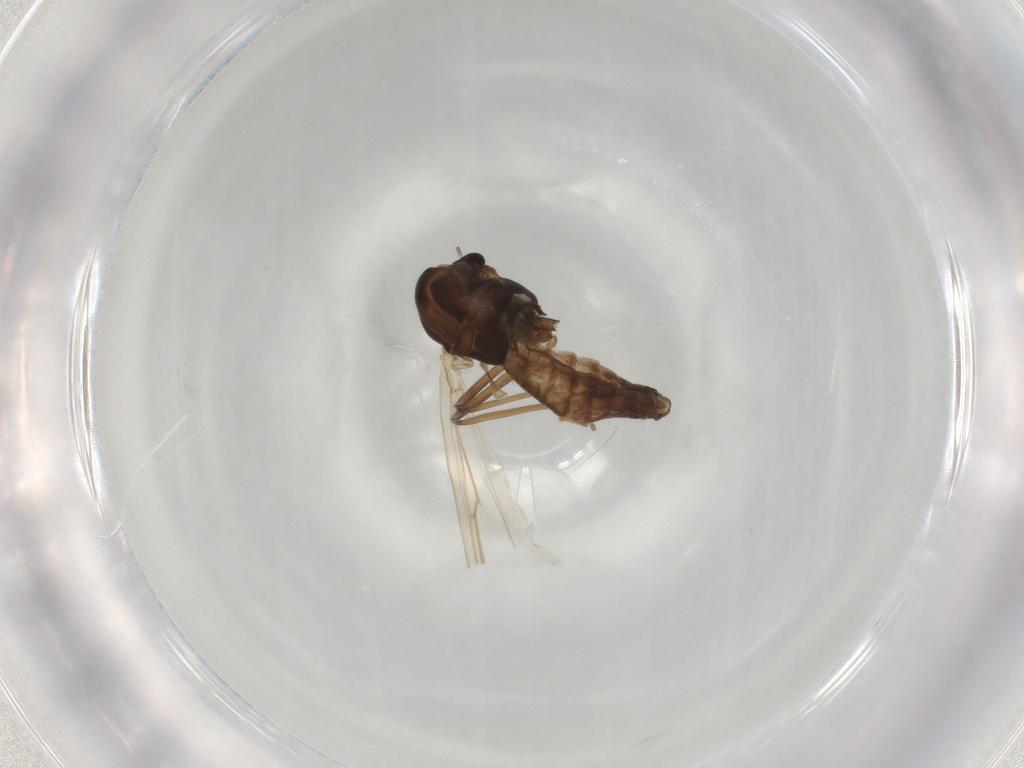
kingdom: Animalia
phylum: Arthropoda
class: Insecta
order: Diptera
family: Chironomidae
